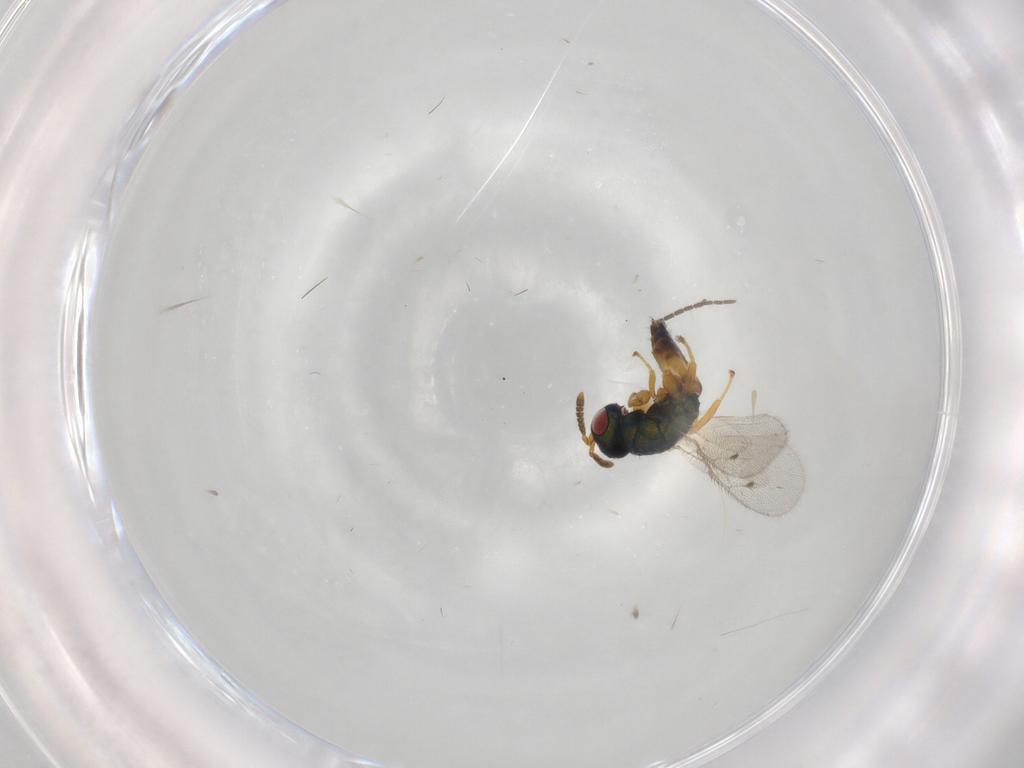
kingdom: Animalia
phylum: Arthropoda
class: Insecta
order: Hymenoptera
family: Pteromalidae
